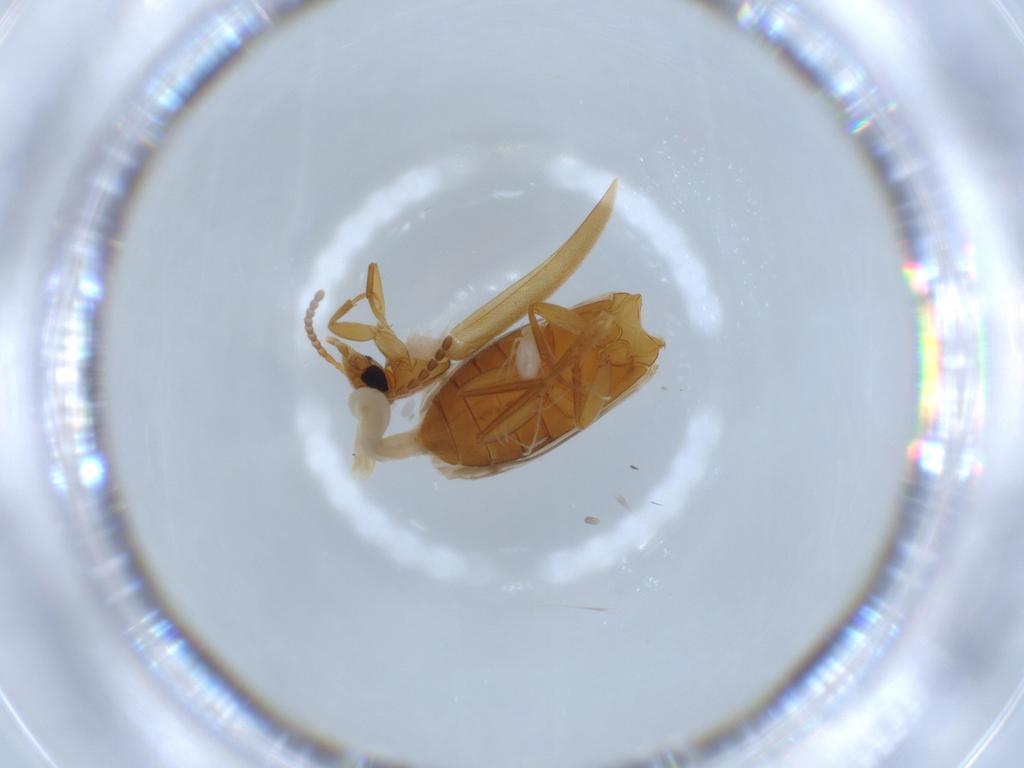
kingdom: Animalia
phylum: Arthropoda
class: Insecta
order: Coleoptera
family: Scraptiidae
